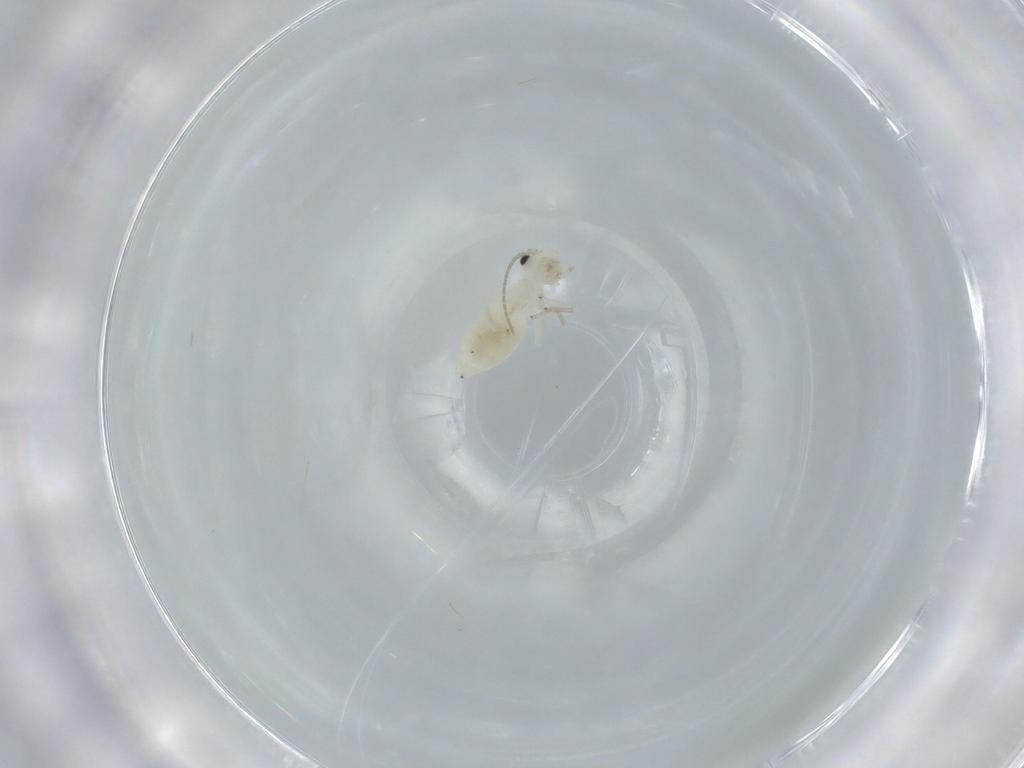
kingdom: Animalia
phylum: Arthropoda
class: Insecta
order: Psocodea
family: Caeciliusidae
